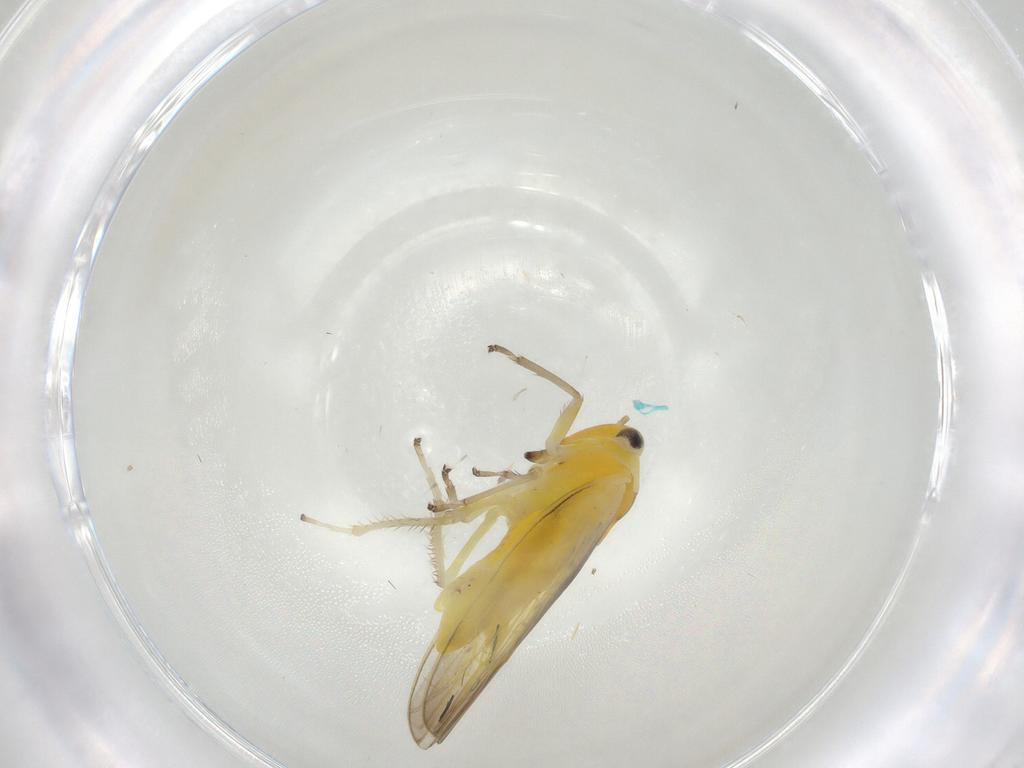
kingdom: Animalia
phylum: Arthropoda
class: Insecta
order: Hemiptera
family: Cicadellidae
